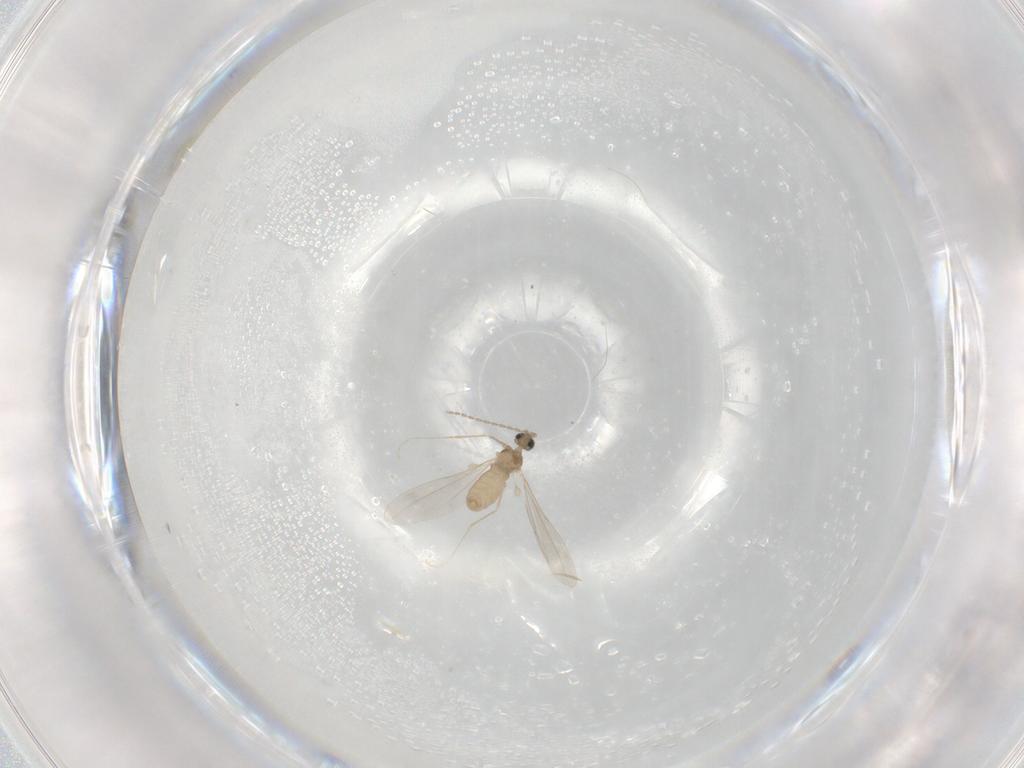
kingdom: Animalia
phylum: Arthropoda
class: Insecta
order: Diptera
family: Cecidomyiidae
